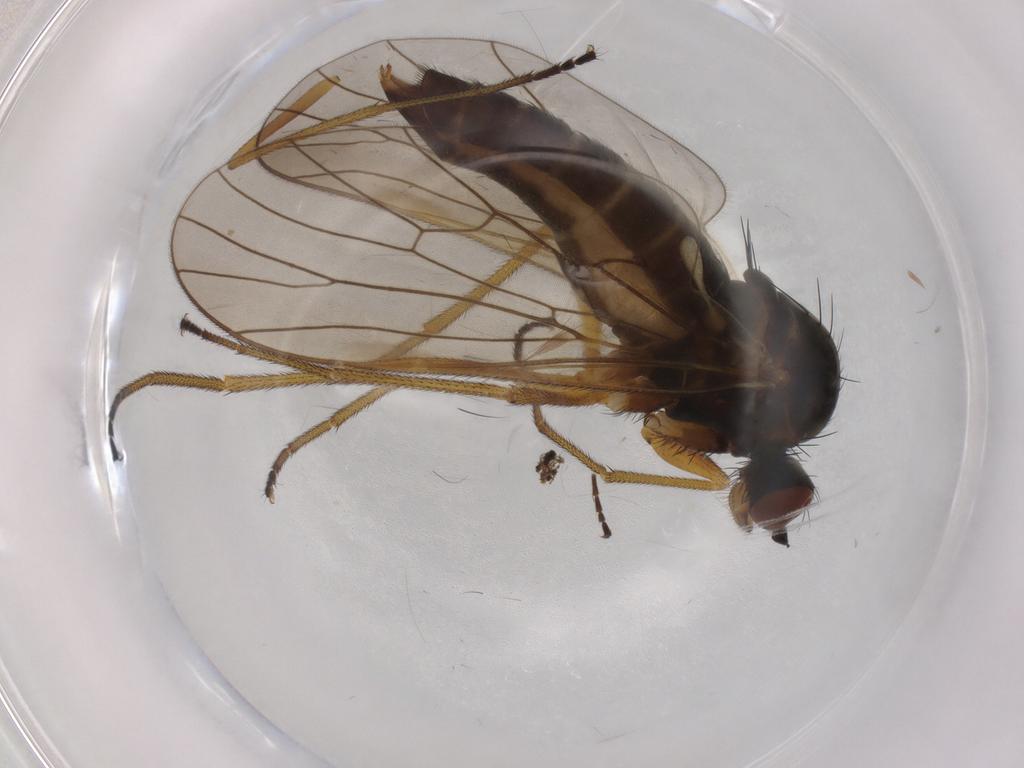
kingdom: Animalia
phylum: Arthropoda
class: Insecta
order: Diptera
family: Brachystomatidae
